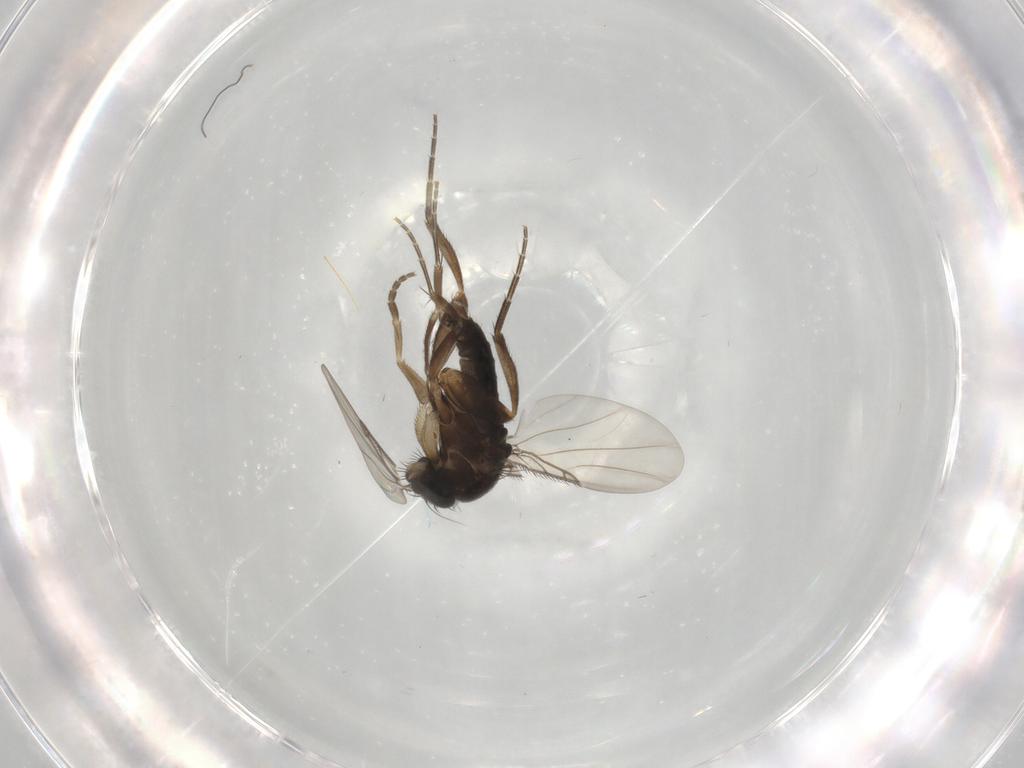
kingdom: Animalia
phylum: Arthropoda
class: Insecta
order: Diptera
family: Phoridae
